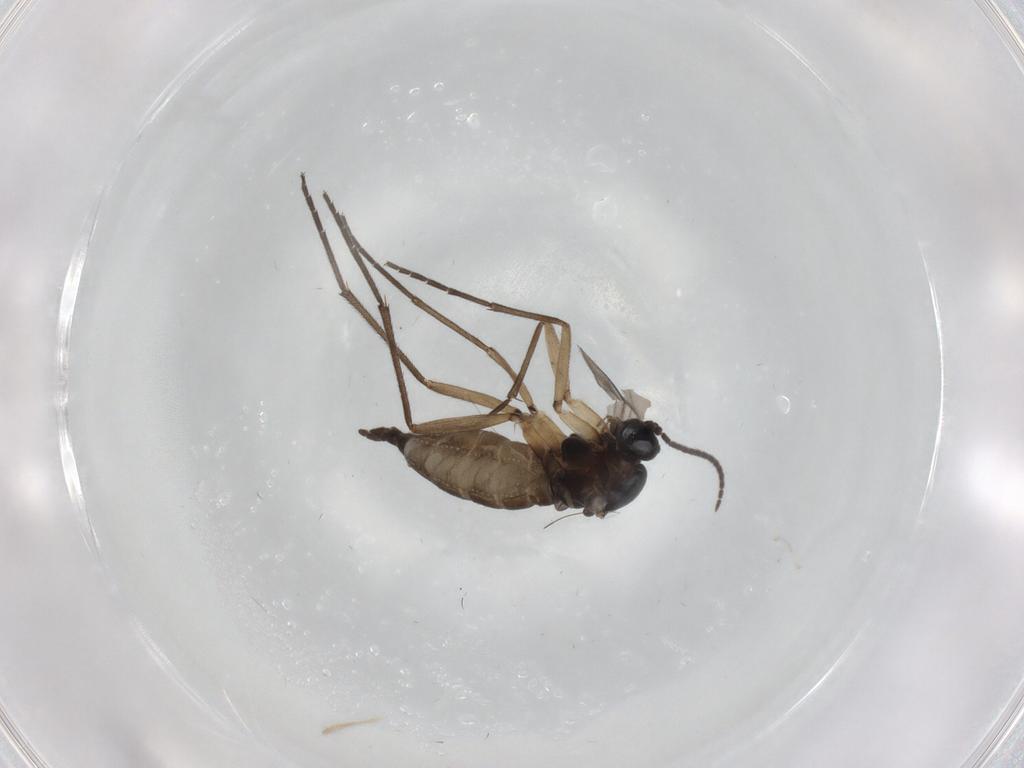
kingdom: Animalia
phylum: Arthropoda
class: Insecta
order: Diptera
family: Sciaridae
